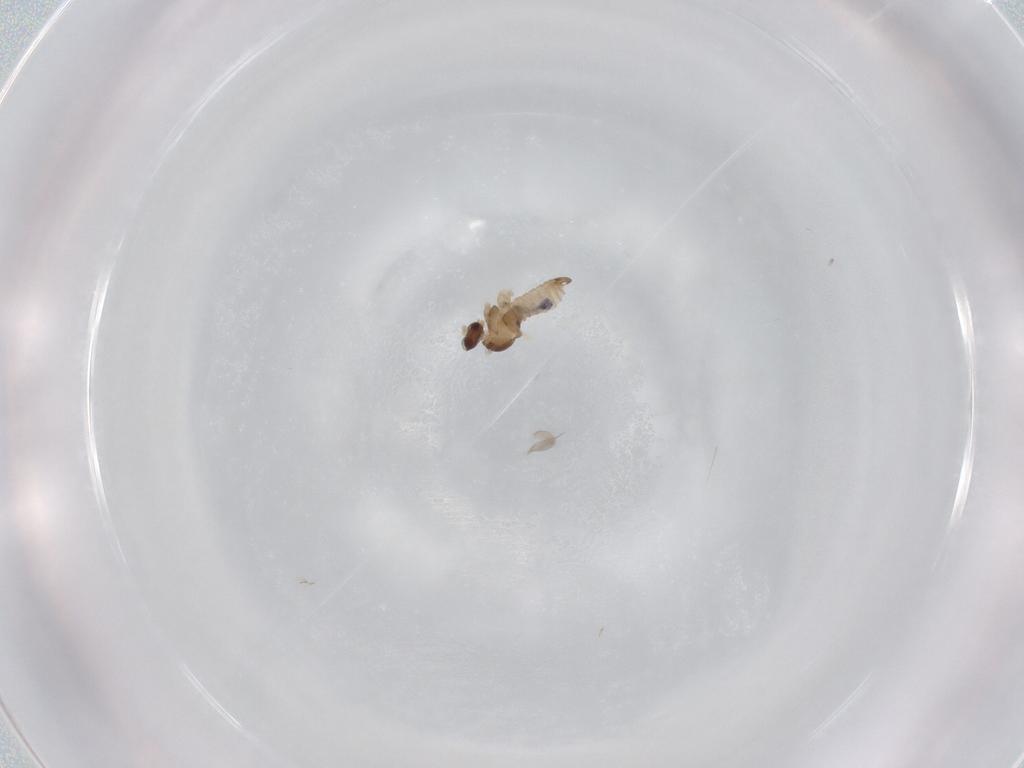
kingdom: Animalia
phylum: Arthropoda
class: Insecta
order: Diptera
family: Cecidomyiidae
